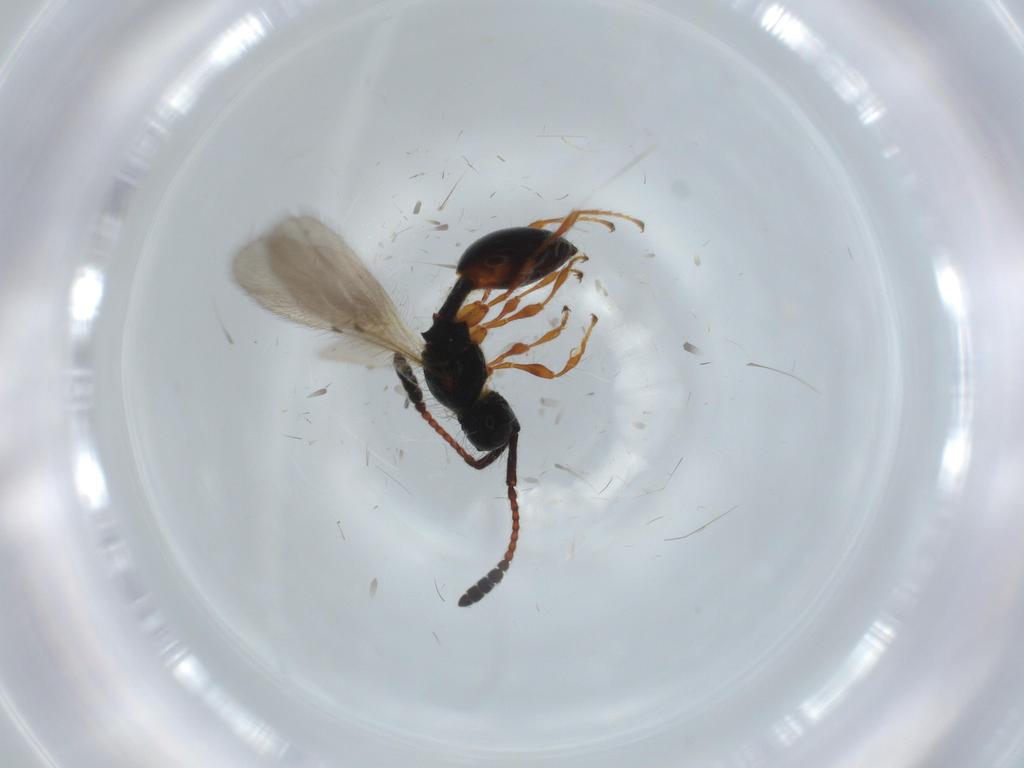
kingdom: Animalia
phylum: Arthropoda
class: Insecta
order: Hymenoptera
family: Diapriidae
